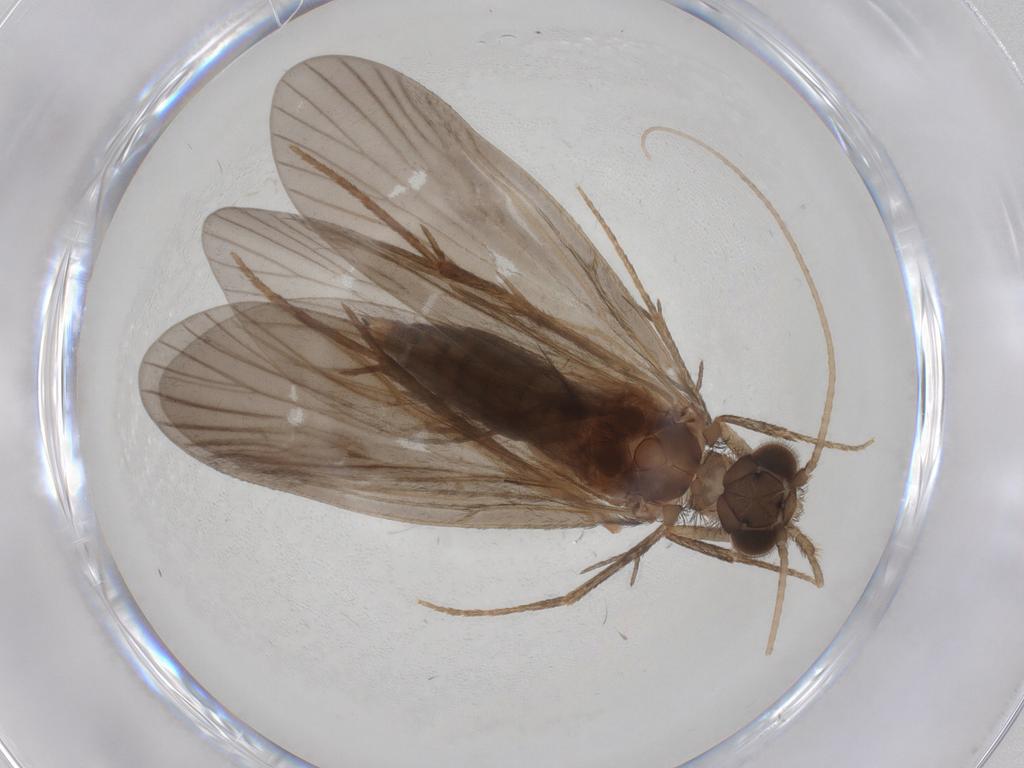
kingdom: Animalia
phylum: Arthropoda
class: Insecta
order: Trichoptera
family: Philopotamidae
